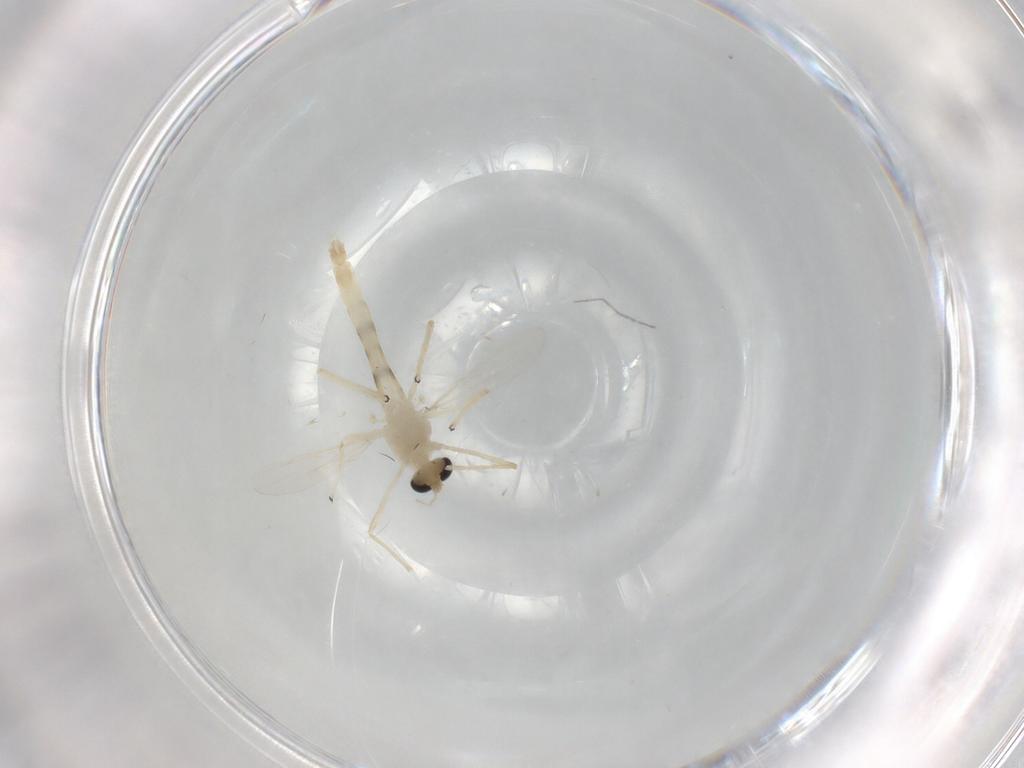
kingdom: Animalia
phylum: Arthropoda
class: Insecta
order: Diptera
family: Chironomidae
